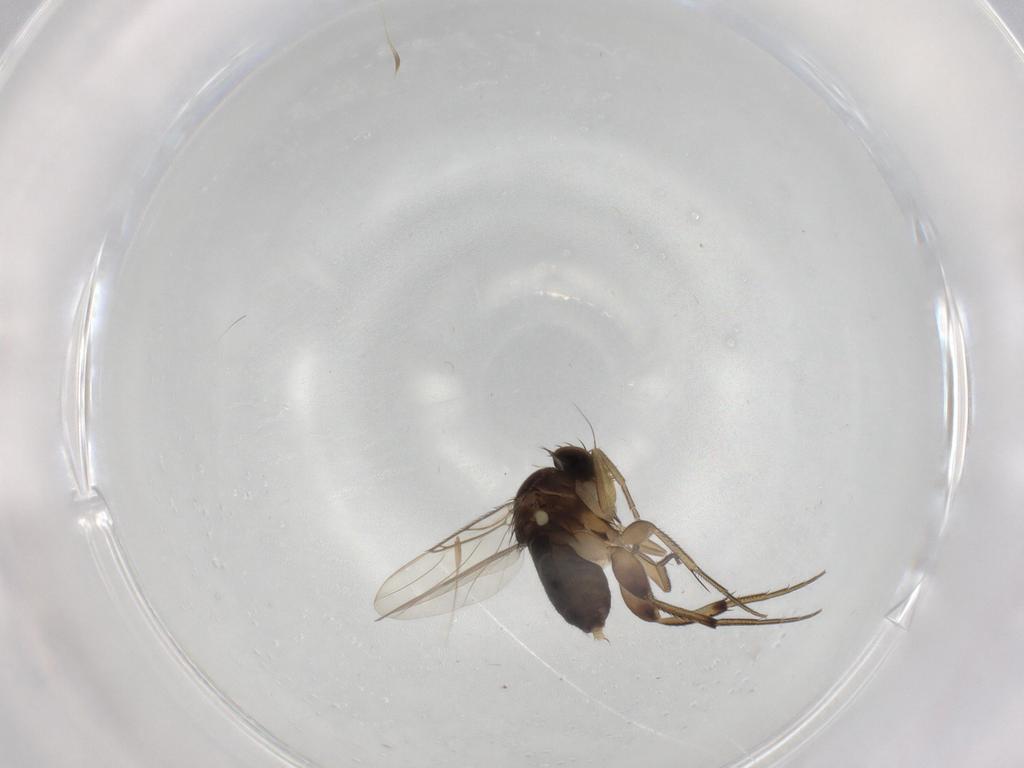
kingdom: Animalia
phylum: Arthropoda
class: Insecta
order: Diptera
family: Phoridae
